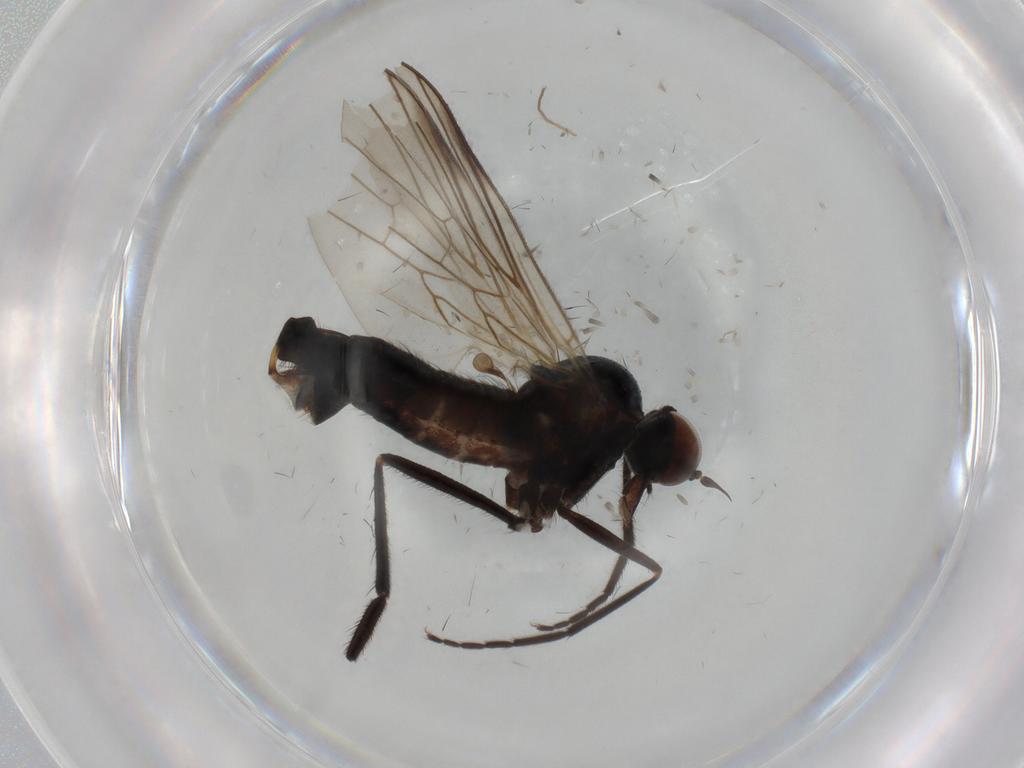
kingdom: Animalia
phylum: Arthropoda
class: Insecta
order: Diptera
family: Empididae
